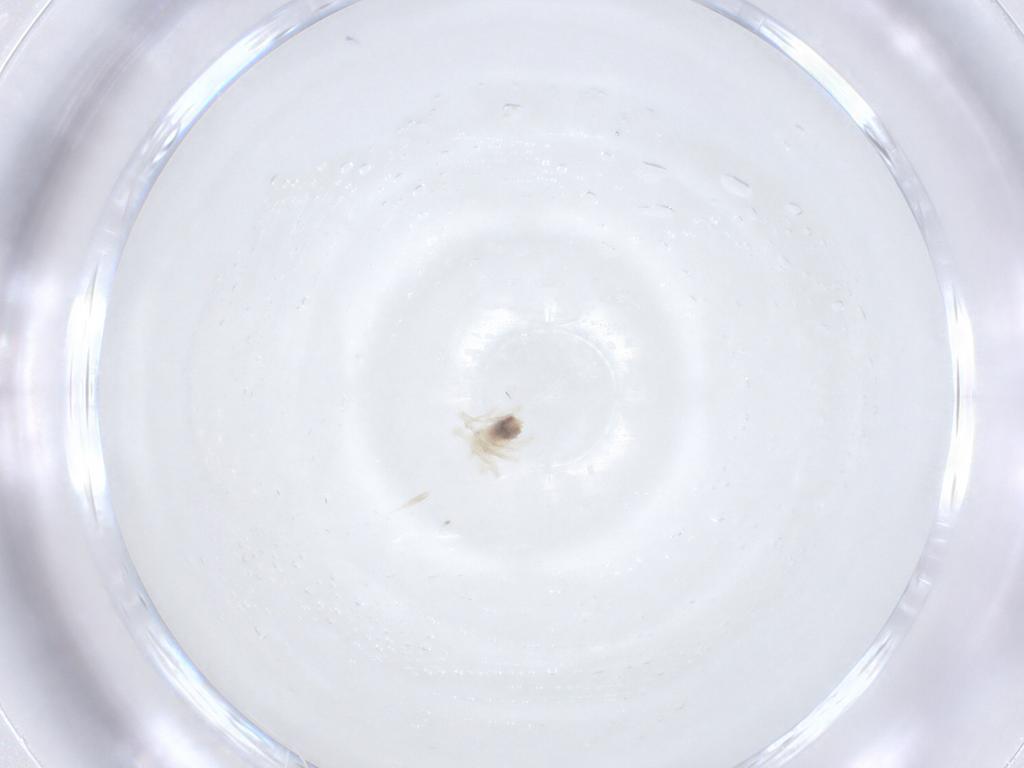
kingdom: Animalia
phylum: Arthropoda
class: Arachnida
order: Trombidiformes
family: Anystidae
